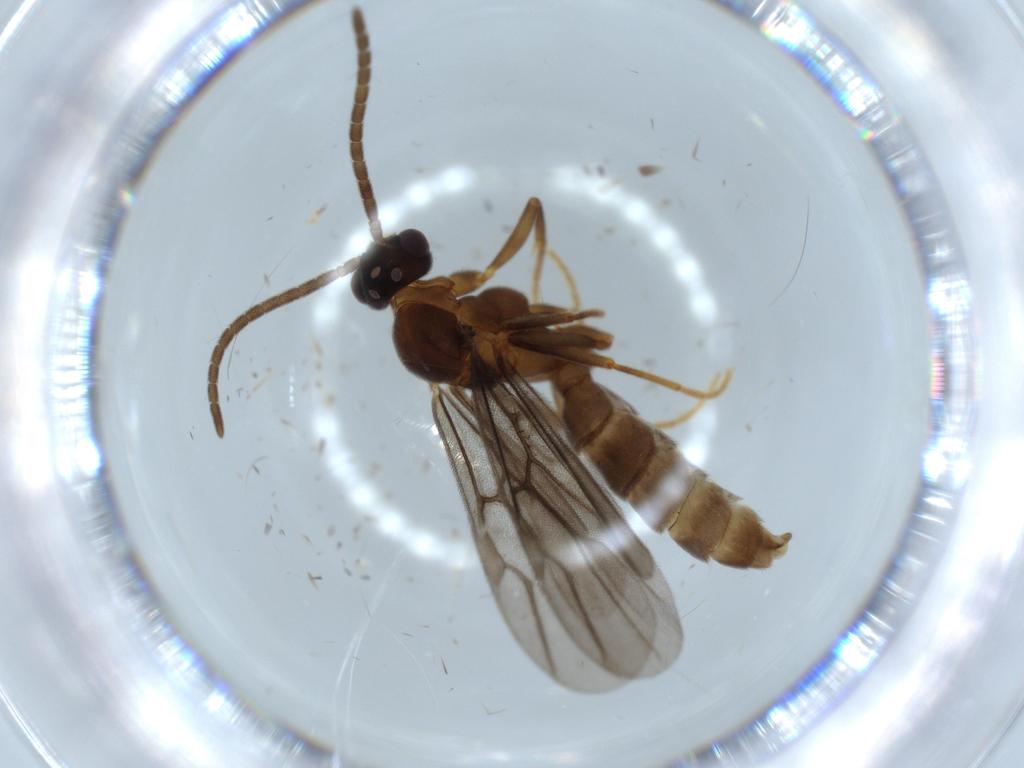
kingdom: Animalia
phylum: Arthropoda
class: Insecta
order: Hymenoptera
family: Formicidae
